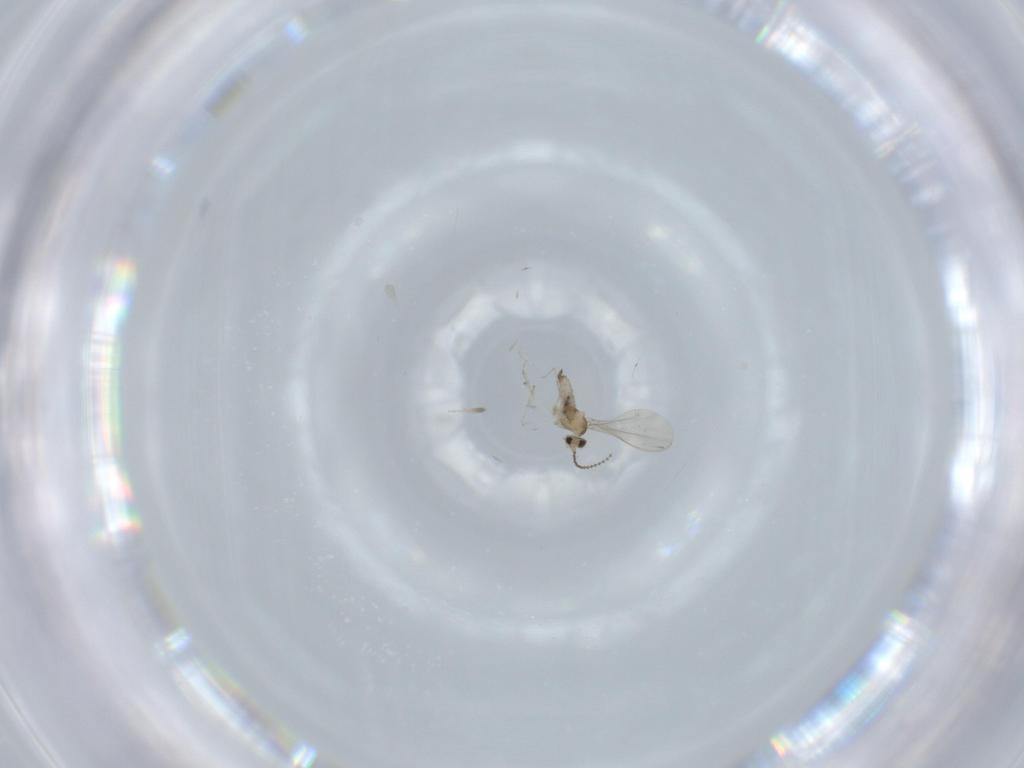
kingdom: Animalia
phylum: Arthropoda
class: Insecta
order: Diptera
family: Cecidomyiidae
